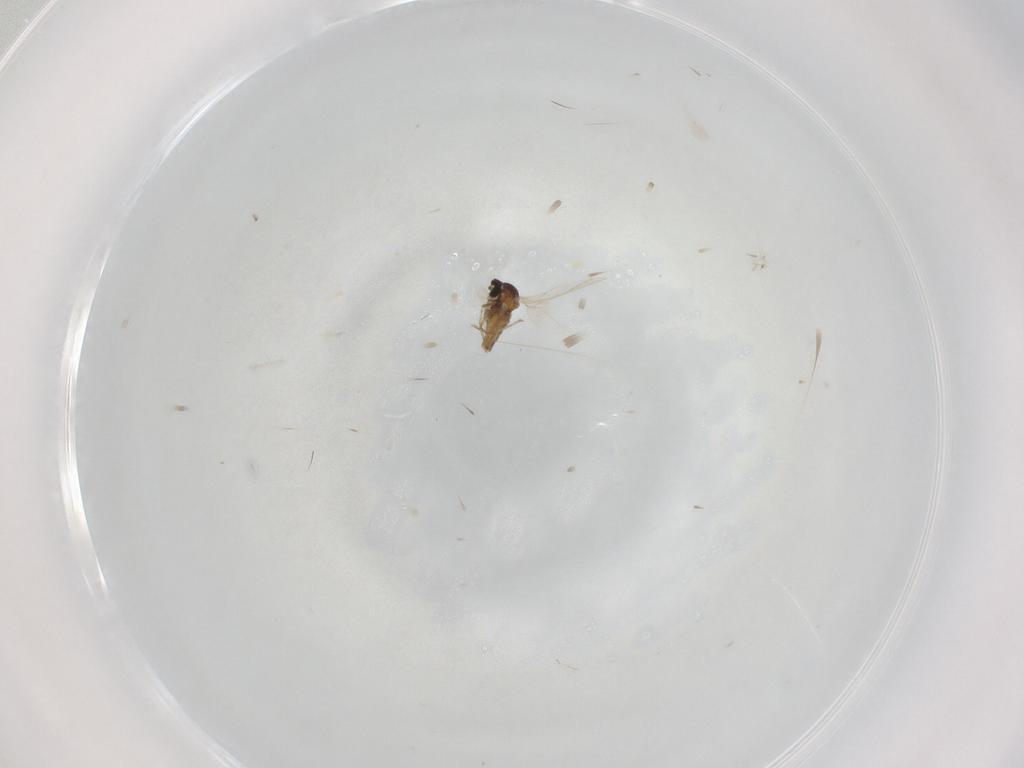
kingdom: Animalia
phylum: Arthropoda
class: Insecta
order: Diptera
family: Cecidomyiidae
